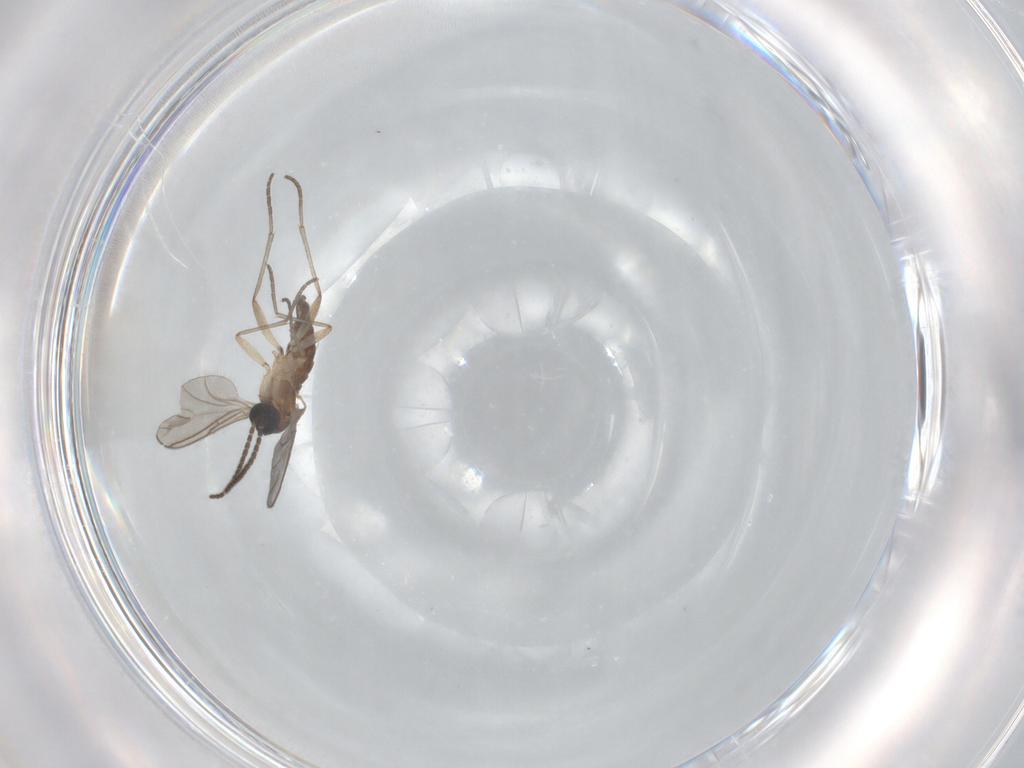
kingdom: Animalia
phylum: Arthropoda
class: Insecta
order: Diptera
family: Sciaridae
